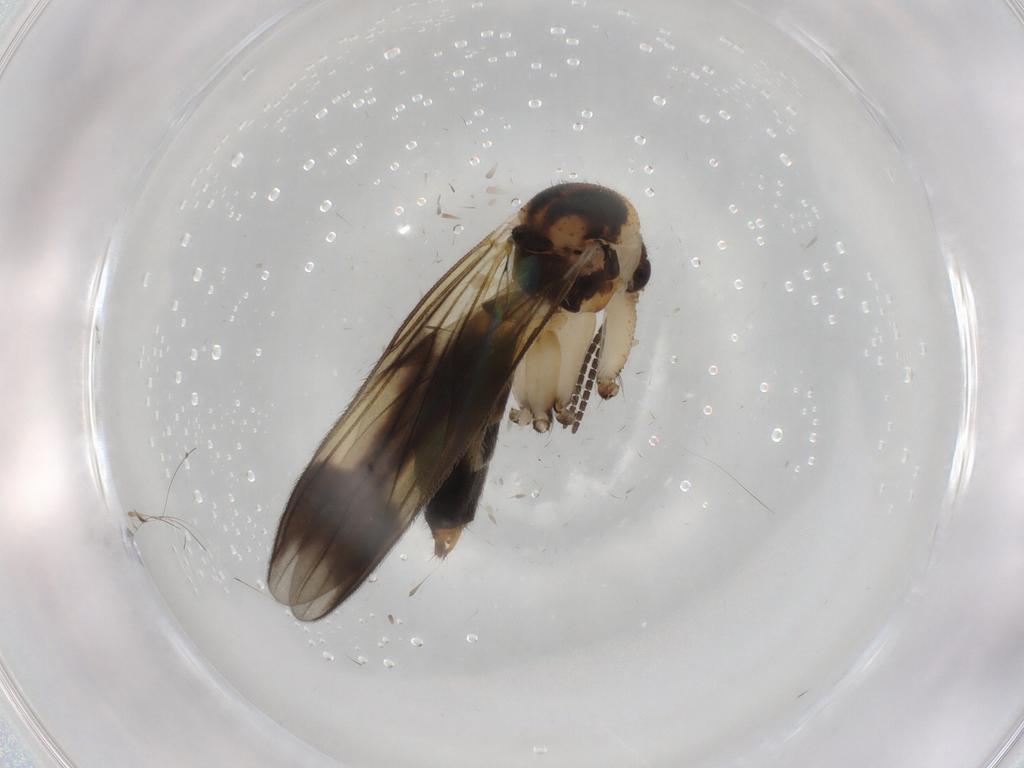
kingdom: Animalia
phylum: Arthropoda
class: Insecta
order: Diptera
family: Mycetophilidae
